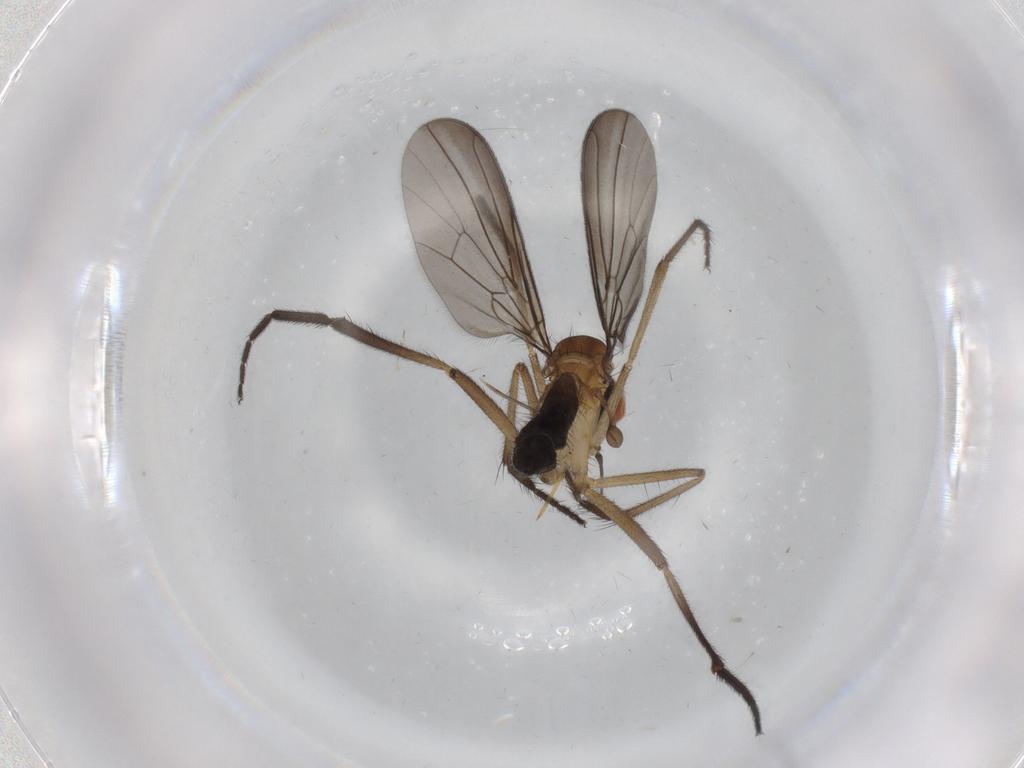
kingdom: Animalia
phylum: Arthropoda
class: Insecta
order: Diptera
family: Empididae
